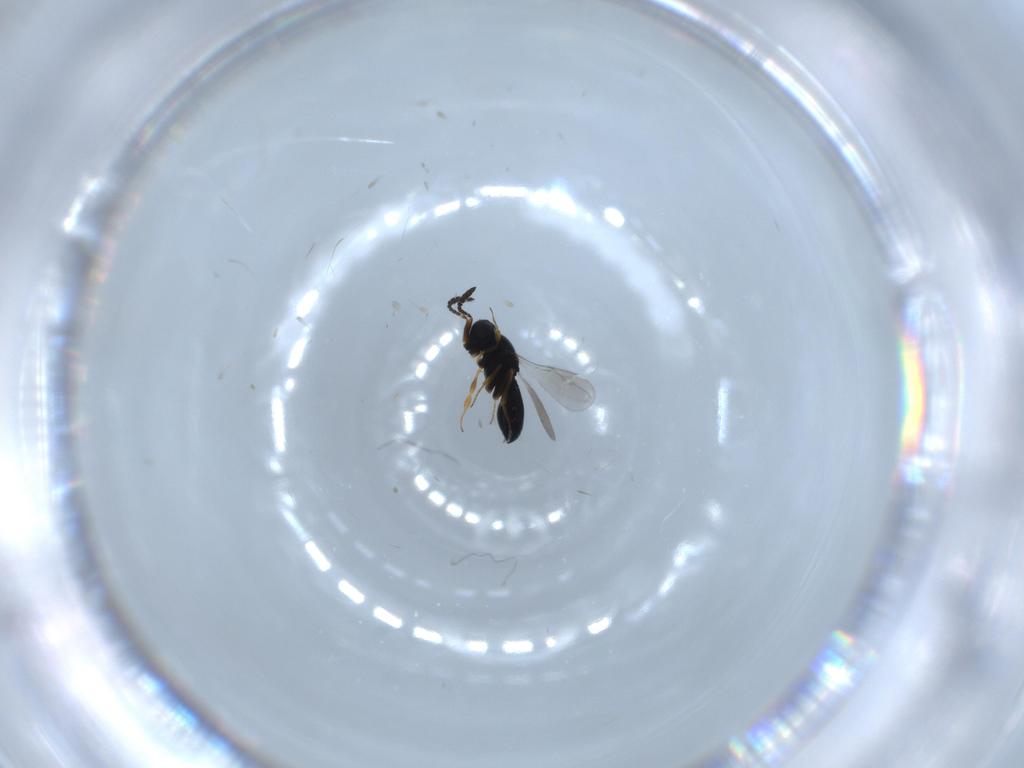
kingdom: Animalia
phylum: Arthropoda
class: Insecta
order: Hymenoptera
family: Scelionidae
